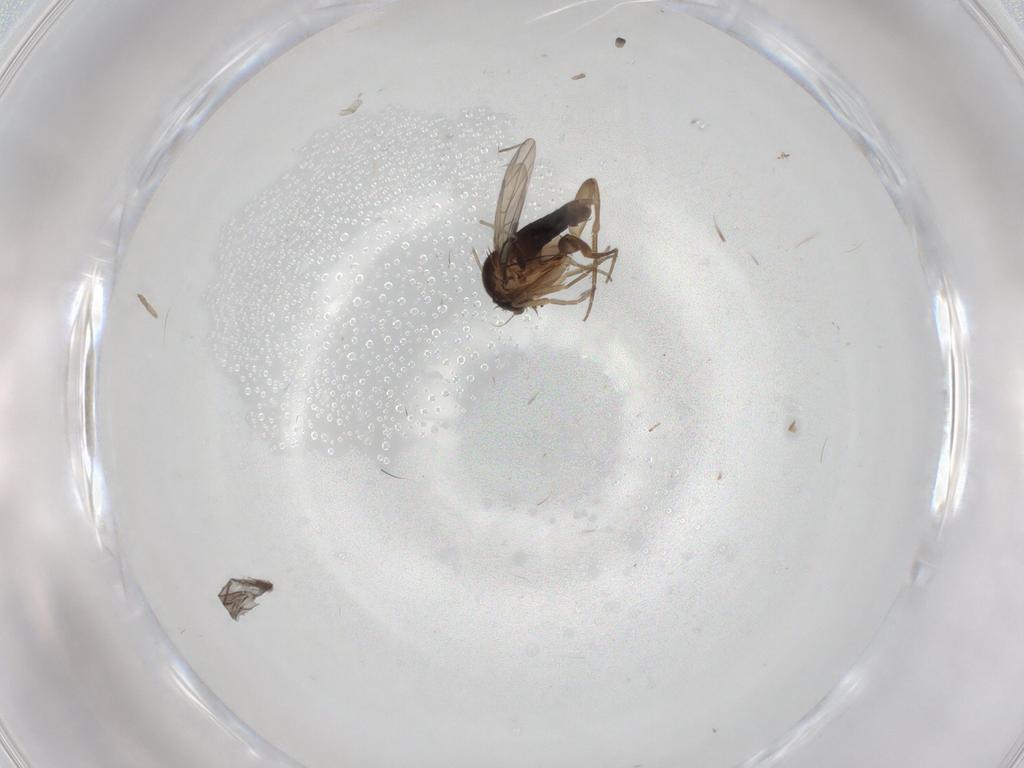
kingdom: Animalia
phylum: Arthropoda
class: Insecta
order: Diptera
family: Phoridae
